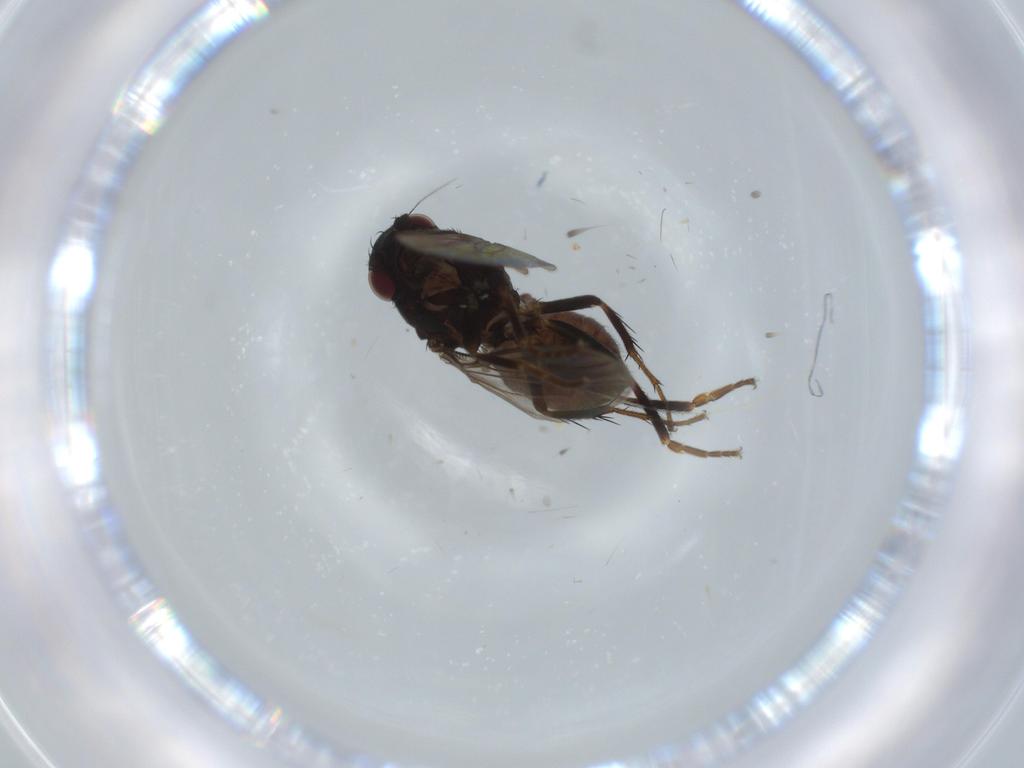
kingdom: Animalia
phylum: Arthropoda
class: Insecta
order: Diptera
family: Sphaeroceridae
